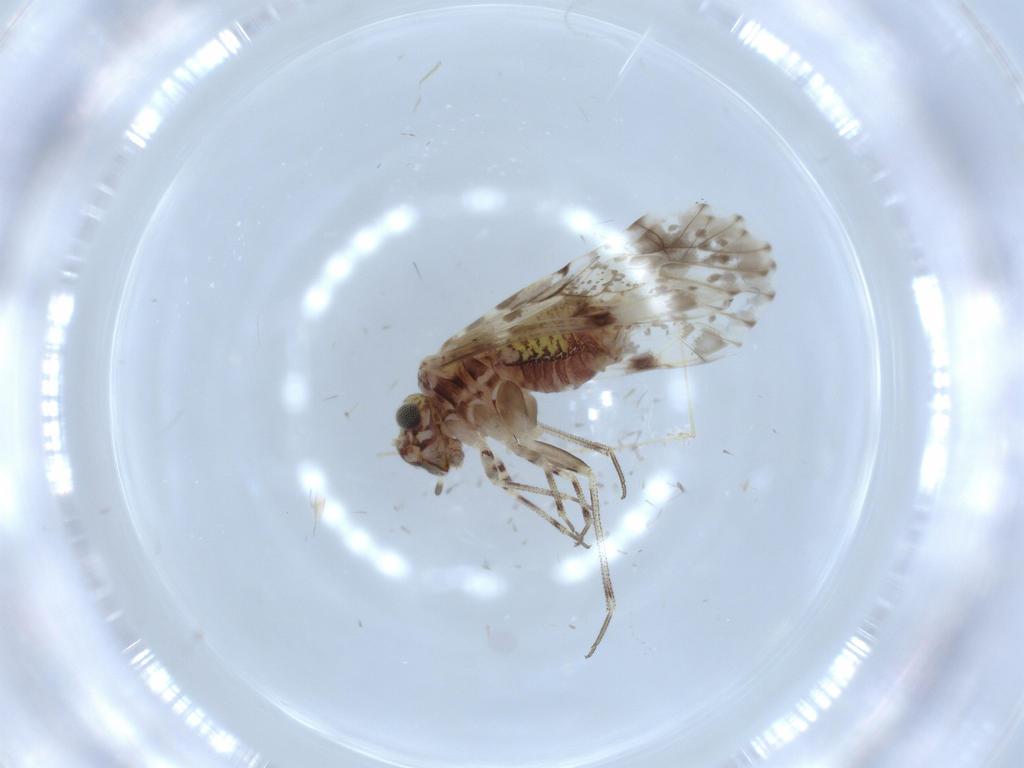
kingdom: Animalia
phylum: Arthropoda
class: Insecta
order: Psocodea
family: Psocidae
